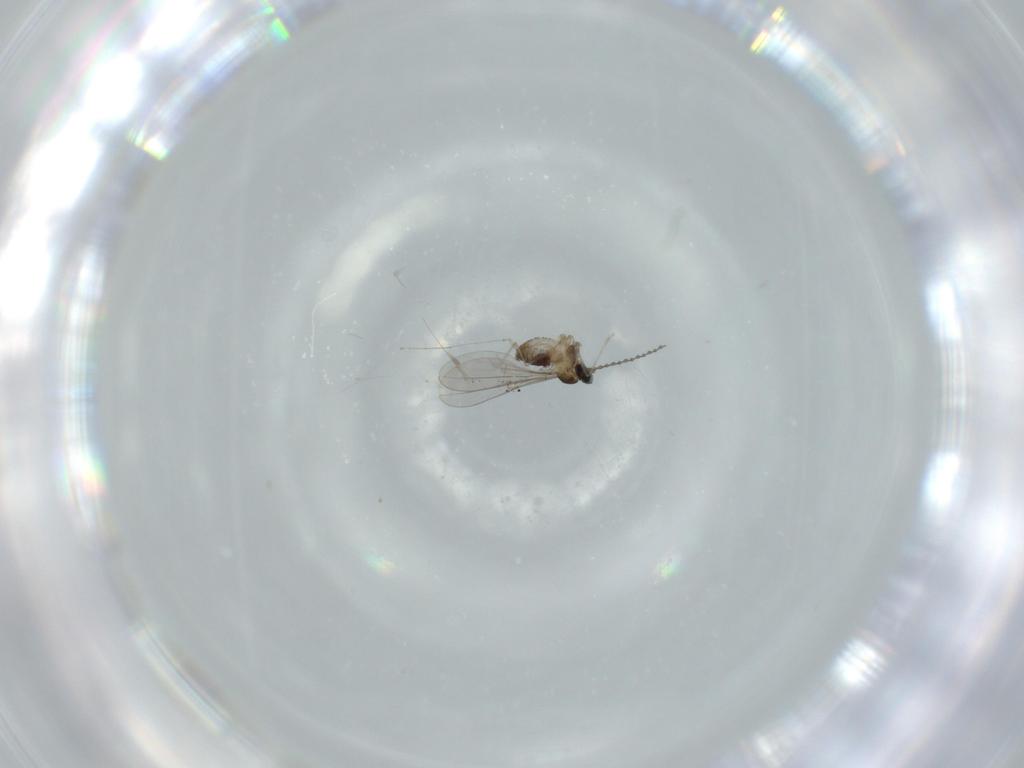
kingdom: Animalia
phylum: Arthropoda
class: Insecta
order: Diptera
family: Cecidomyiidae
